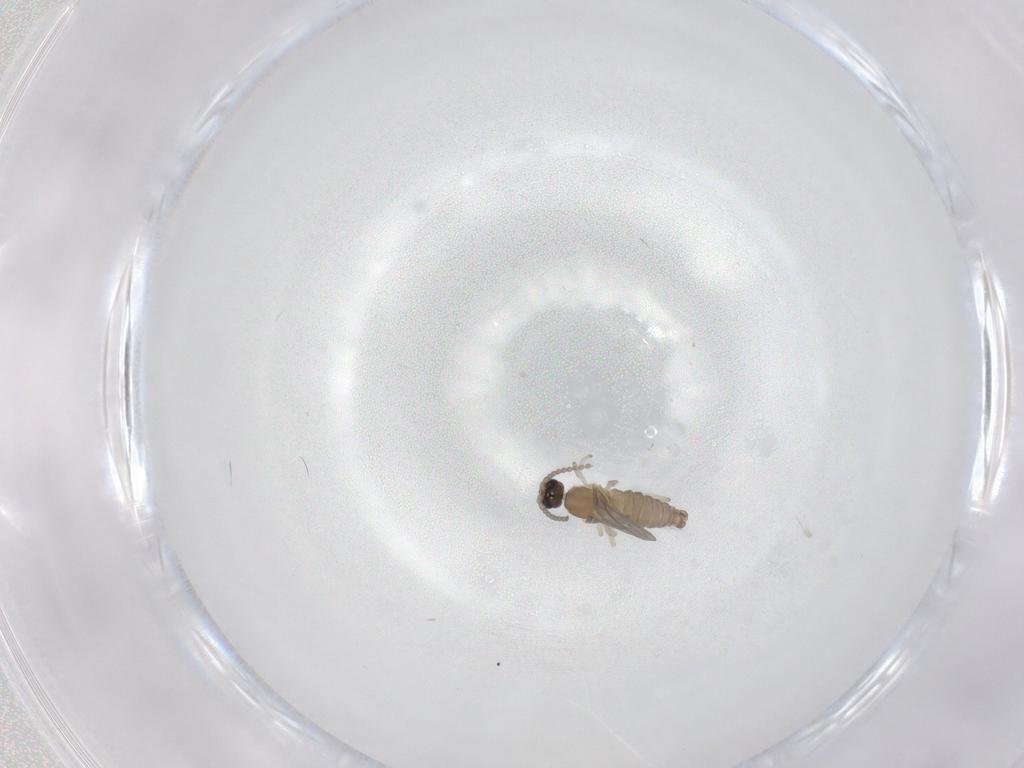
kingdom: Animalia
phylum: Arthropoda
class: Insecta
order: Diptera
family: Cecidomyiidae
